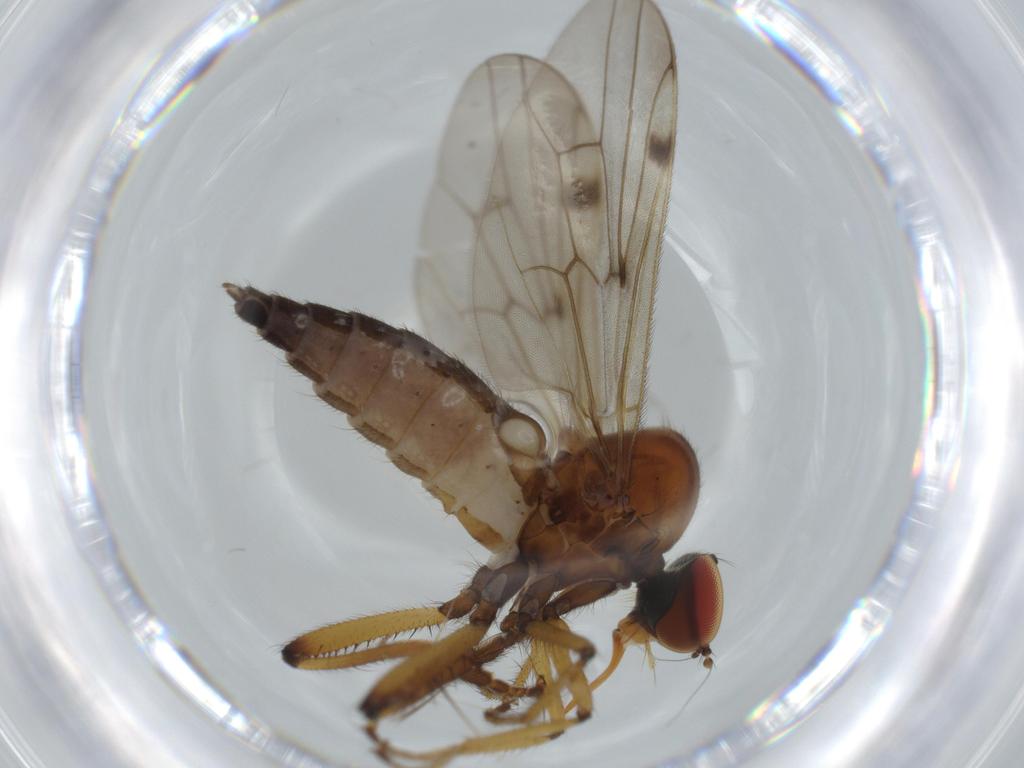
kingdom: Animalia
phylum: Arthropoda
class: Insecta
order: Diptera
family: Hybotidae
